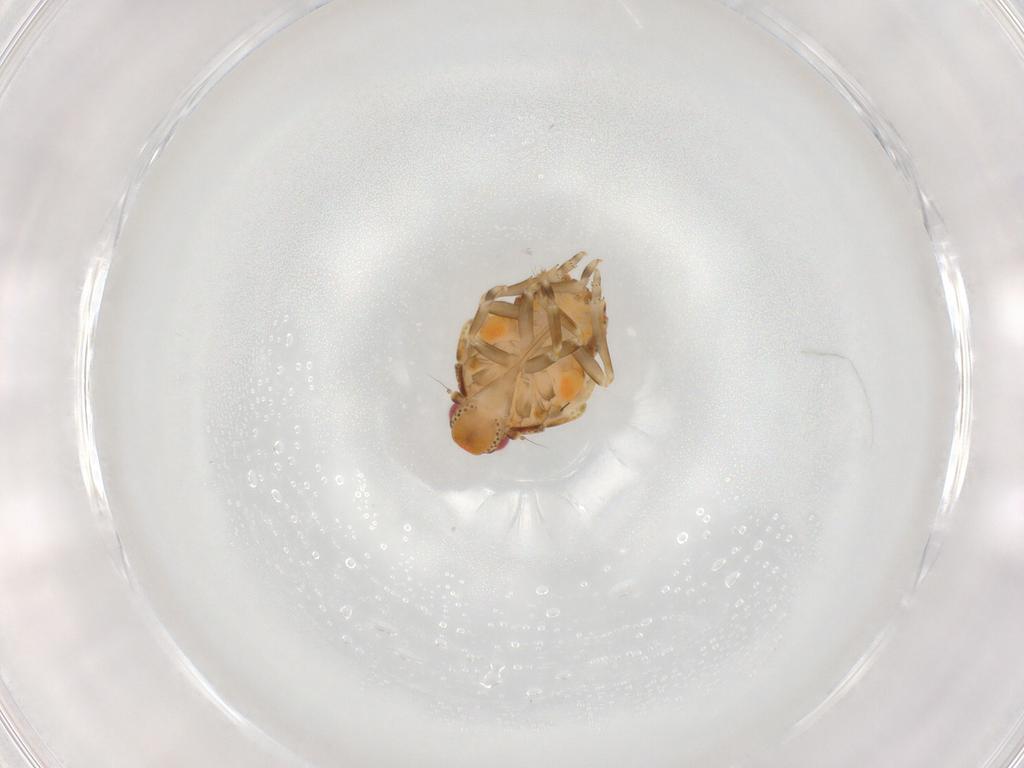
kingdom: Animalia
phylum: Arthropoda
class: Insecta
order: Hemiptera
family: Flatidae
